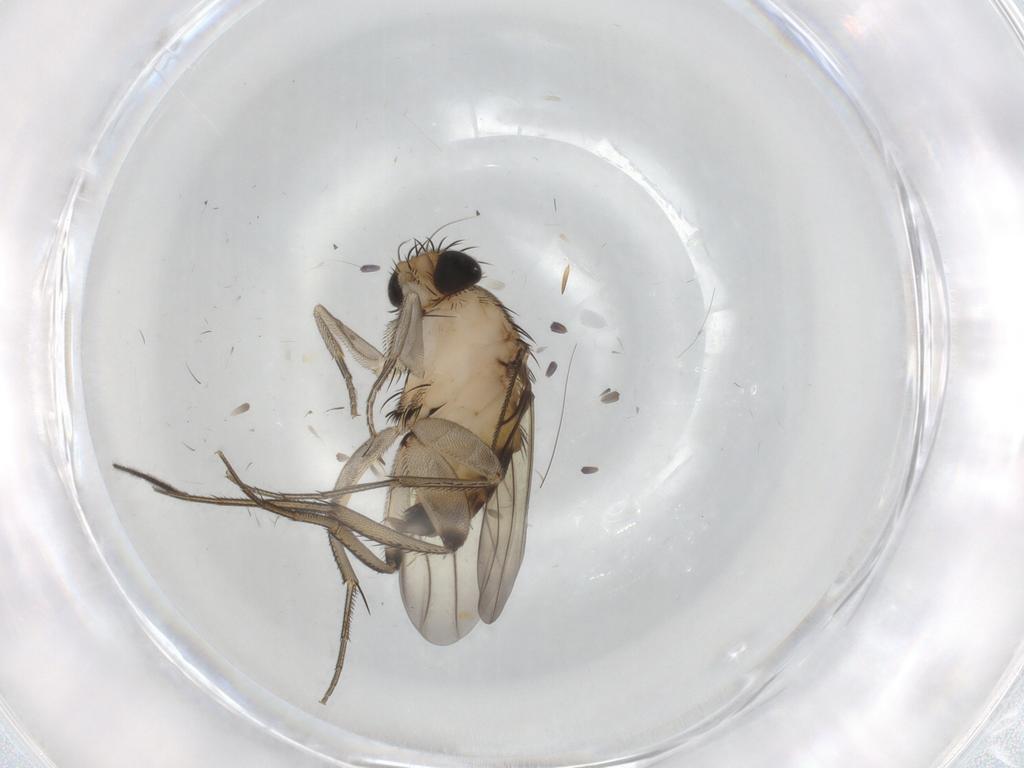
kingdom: Animalia
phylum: Arthropoda
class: Insecta
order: Diptera
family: Phoridae
